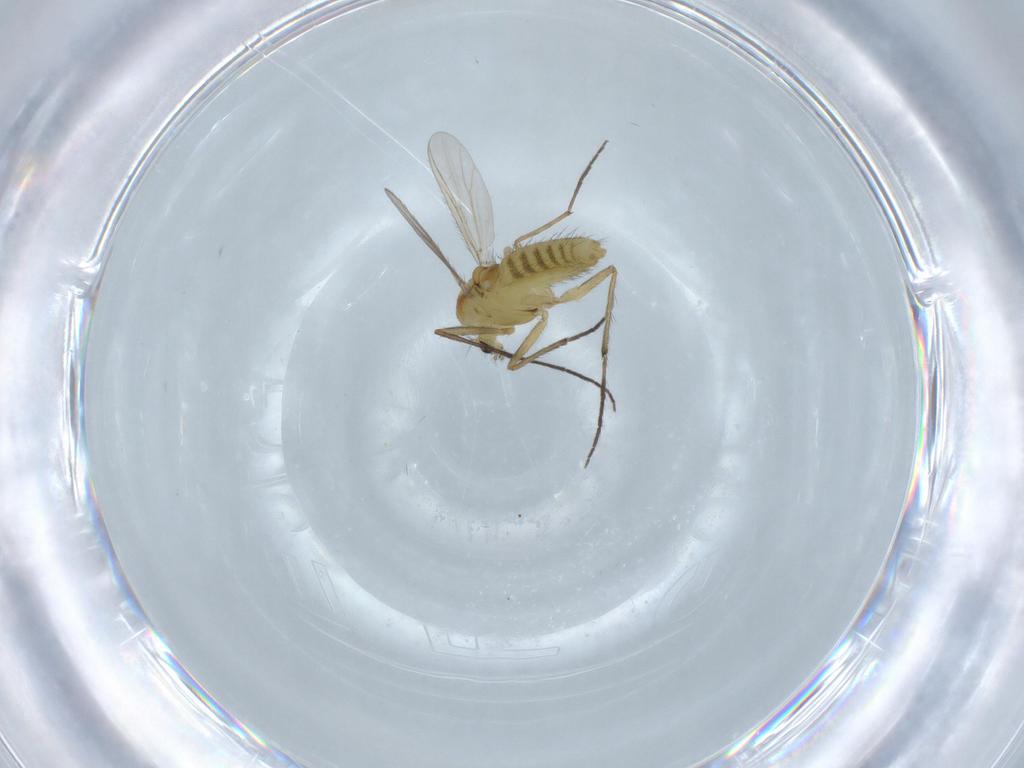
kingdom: Animalia
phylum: Arthropoda
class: Insecta
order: Diptera
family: Chironomidae
